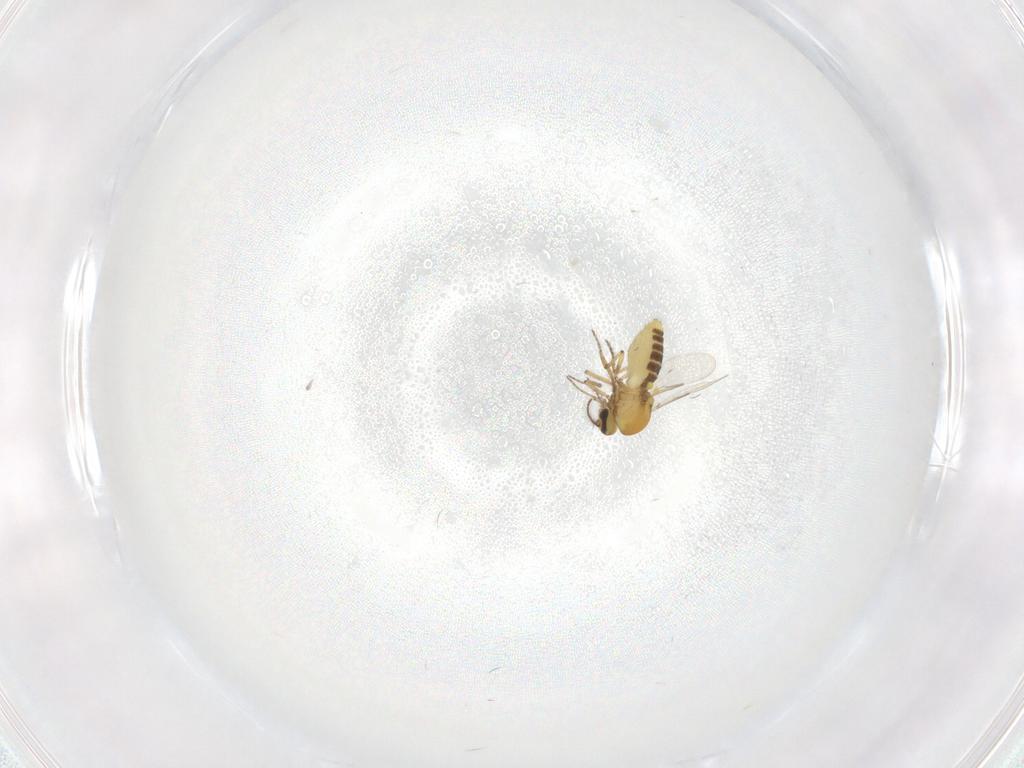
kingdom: Animalia
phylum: Arthropoda
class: Insecta
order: Diptera
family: Ceratopogonidae
